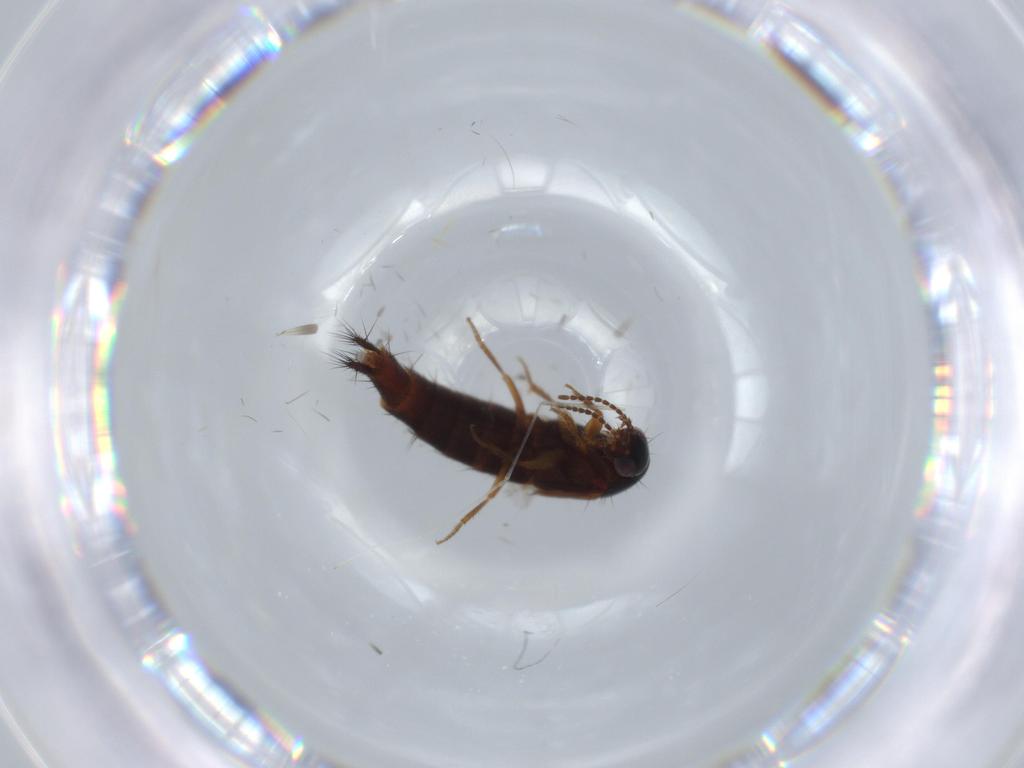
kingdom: Animalia
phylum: Arthropoda
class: Insecta
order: Coleoptera
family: Staphylinidae
